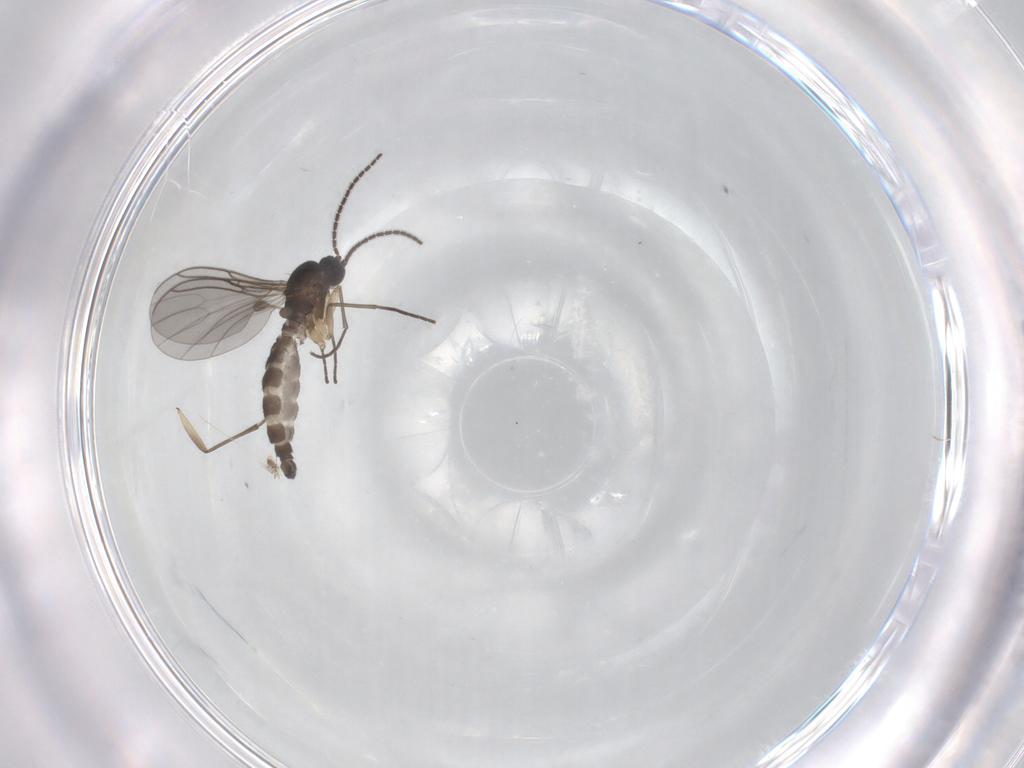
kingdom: Animalia
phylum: Arthropoda
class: Insecta
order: Diptera
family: Sciaridae
